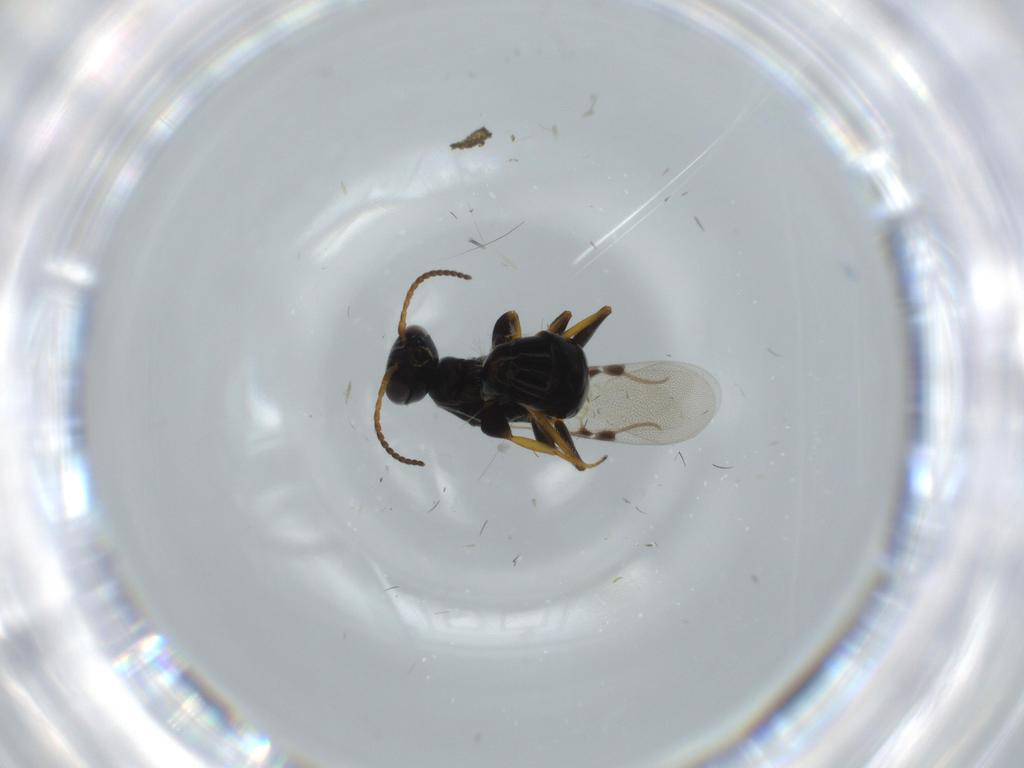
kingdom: Animalia
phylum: Arthropoda
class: Insecta
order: Hymenoptera
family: Bethylidae
